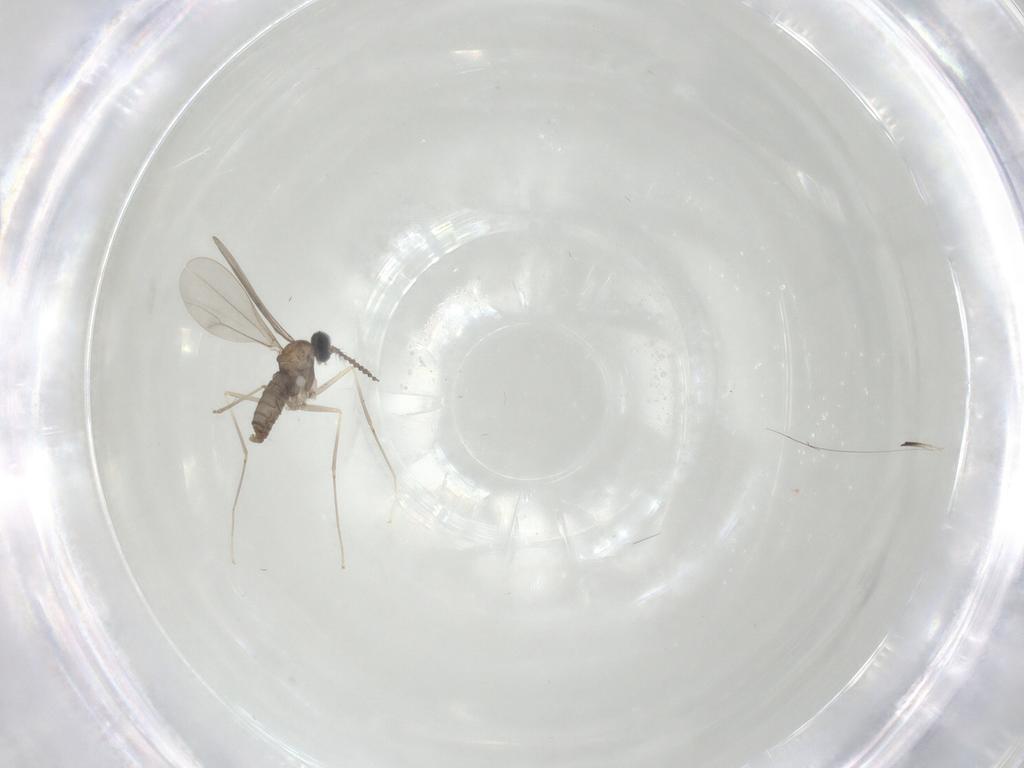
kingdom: Animalia
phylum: Arthropoda
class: Insecta
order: Diptera
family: Cecidomyiidae
